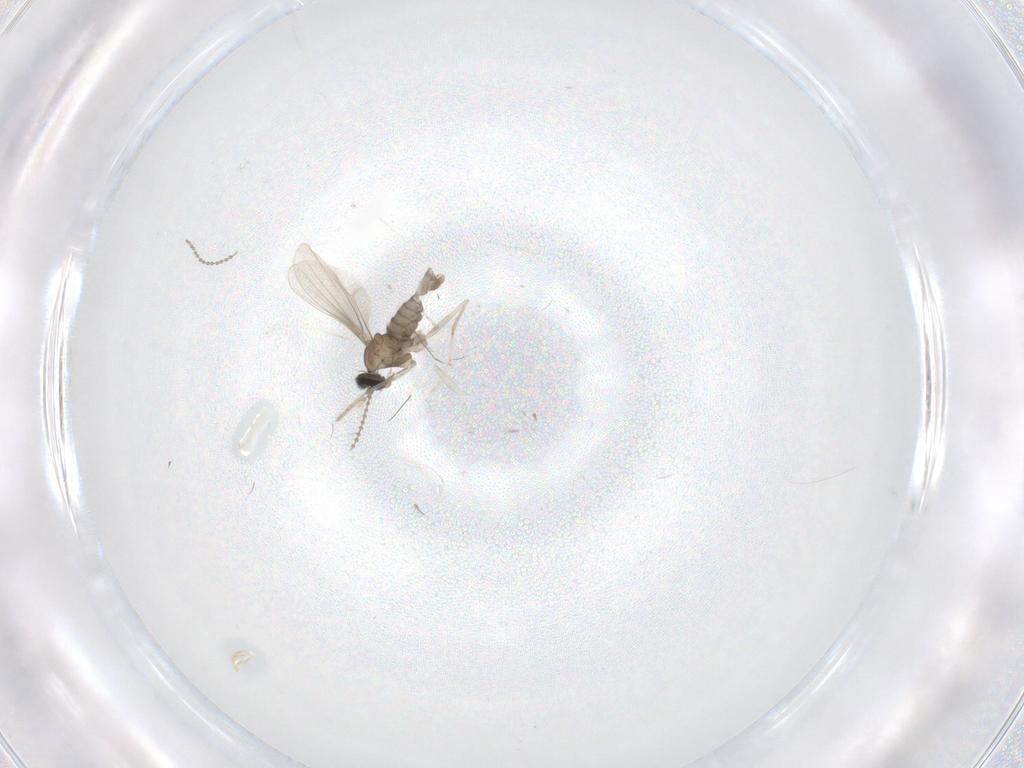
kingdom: Animalia
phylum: Arthropoda
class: Insecta
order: Diptera
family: Cecidomyiidae
